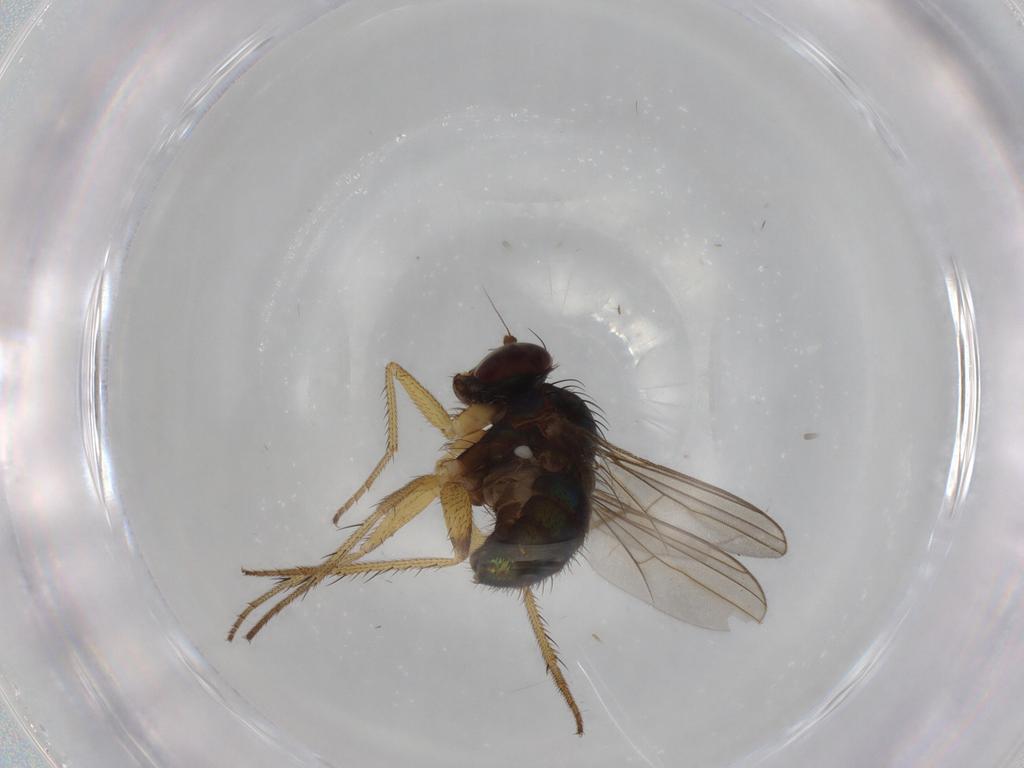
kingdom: Animalia
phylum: Arthropoda
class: Insecta
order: Diptera
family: Dolichopodidae
